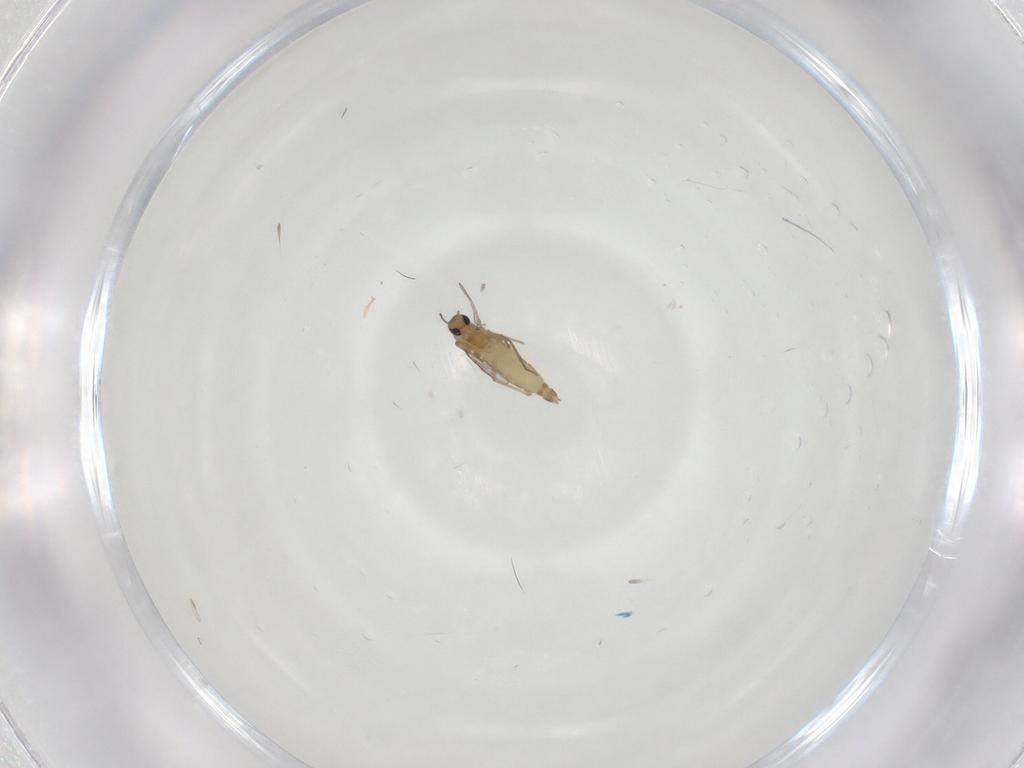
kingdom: Animalia
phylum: Arthropoda
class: Insecta
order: Diptera
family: Chironomidae
